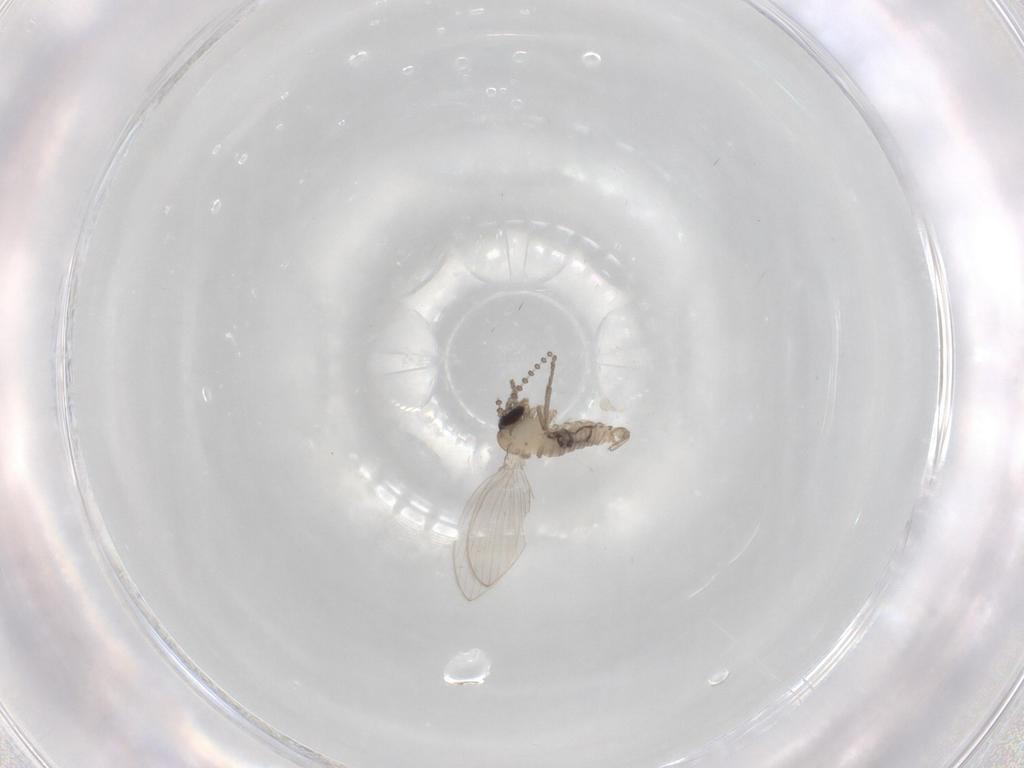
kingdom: Animalia
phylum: Arthropoda
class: Insecta
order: Diptera
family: Psychodidae
